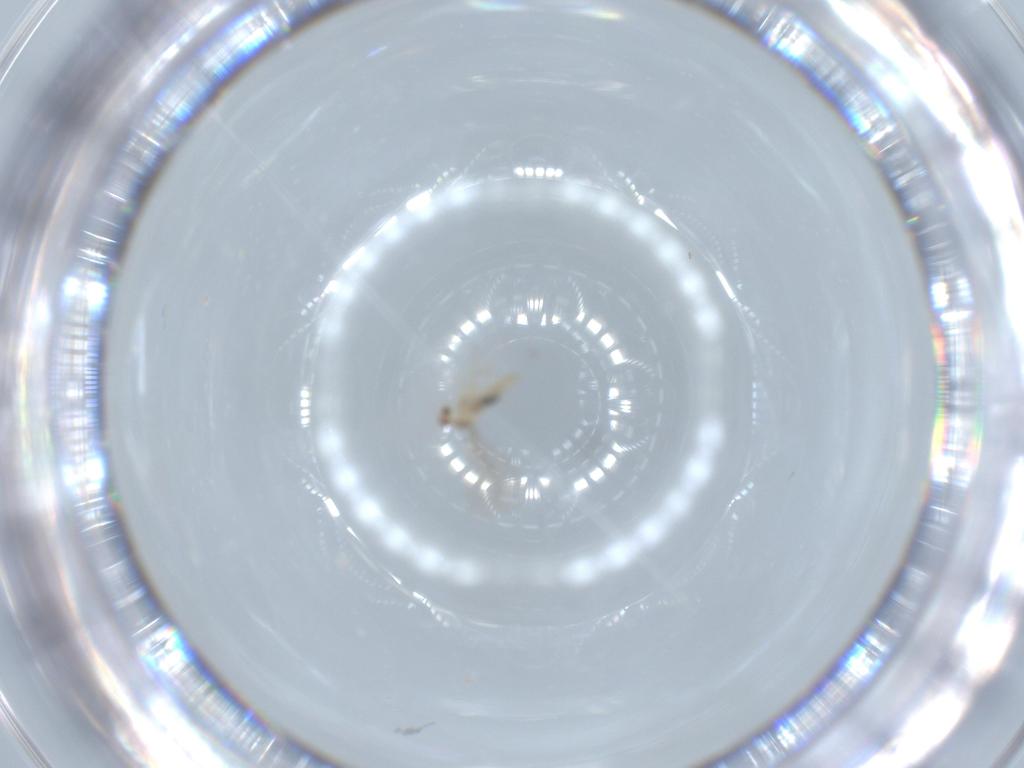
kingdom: Animalia
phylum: Arthropoda
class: Insecta
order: Diptera
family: Cecidomyiidae
